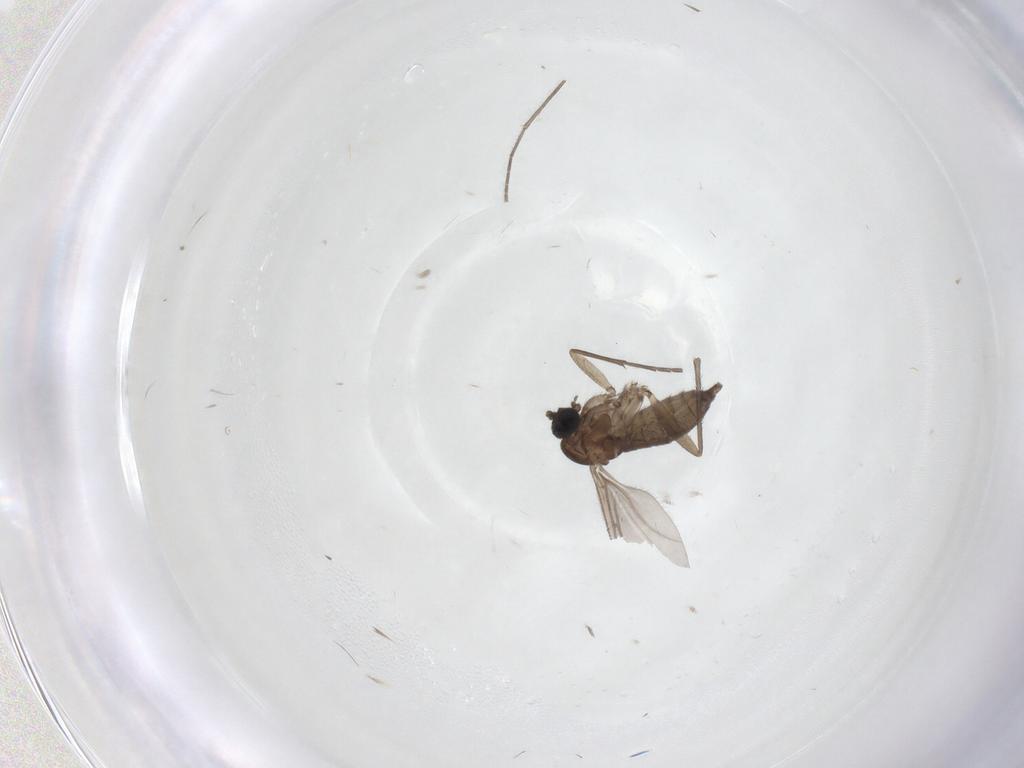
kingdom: Animalia
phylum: Arthropoda
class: Insecta
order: Diptera
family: Sciaridae
